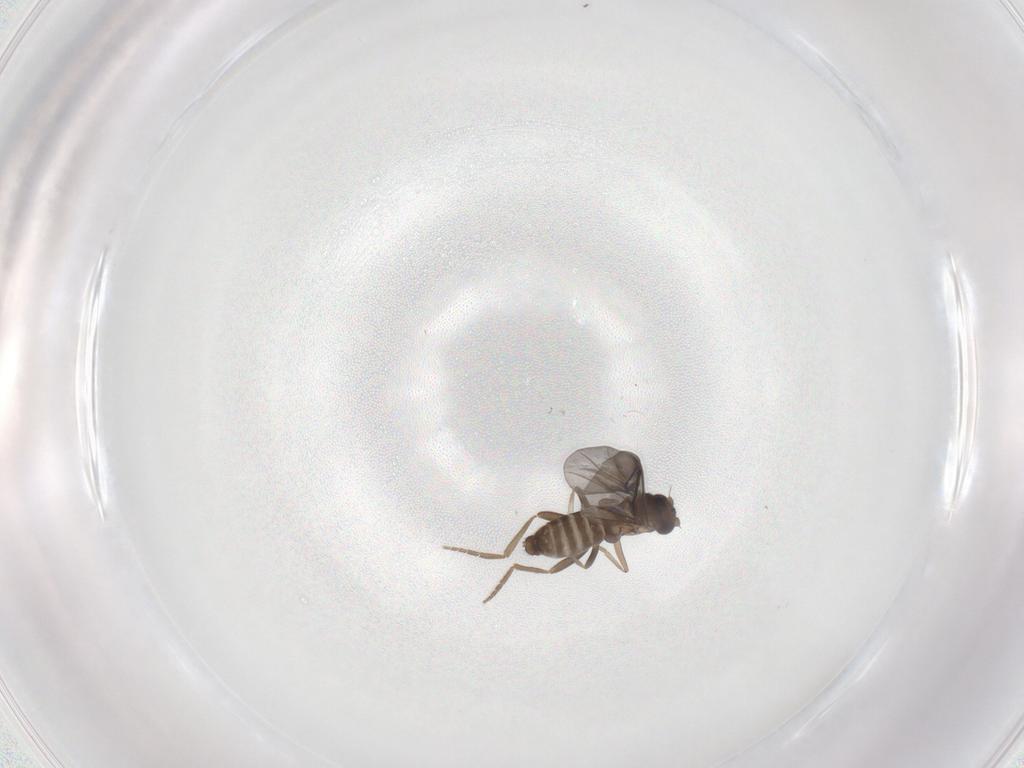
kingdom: Animalia
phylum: Arthropoda
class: Insecta
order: Diptera
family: Phoridae
